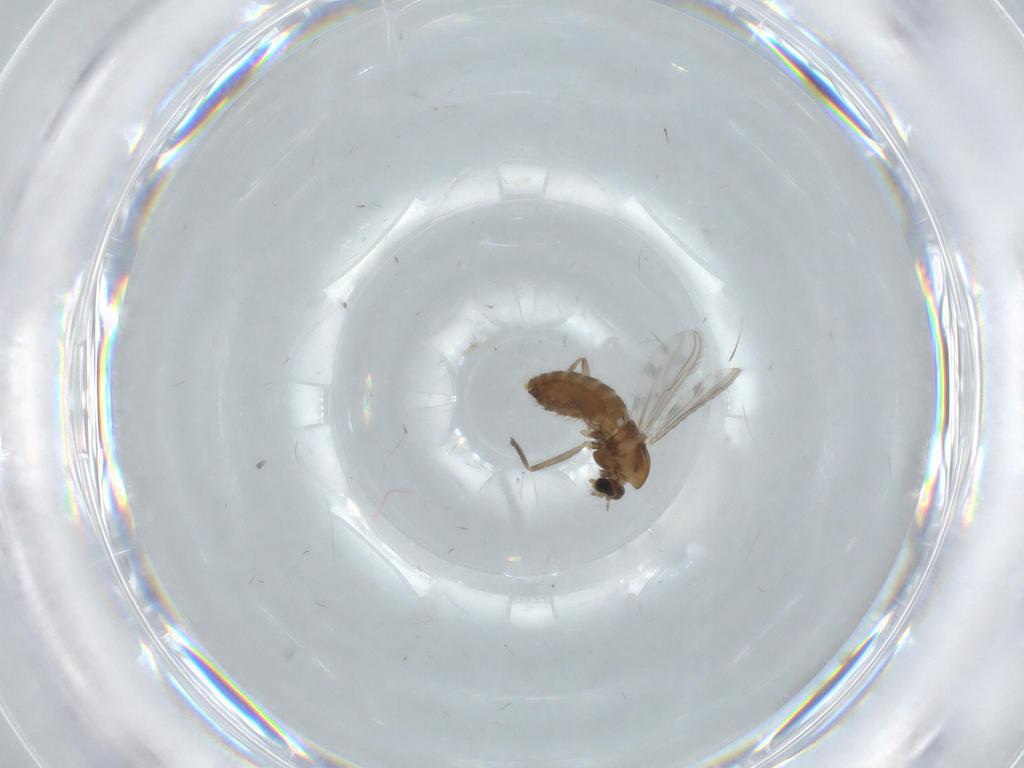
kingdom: Animalia
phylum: Arthropoda
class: Insecta
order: Diptera
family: Chironomidae
